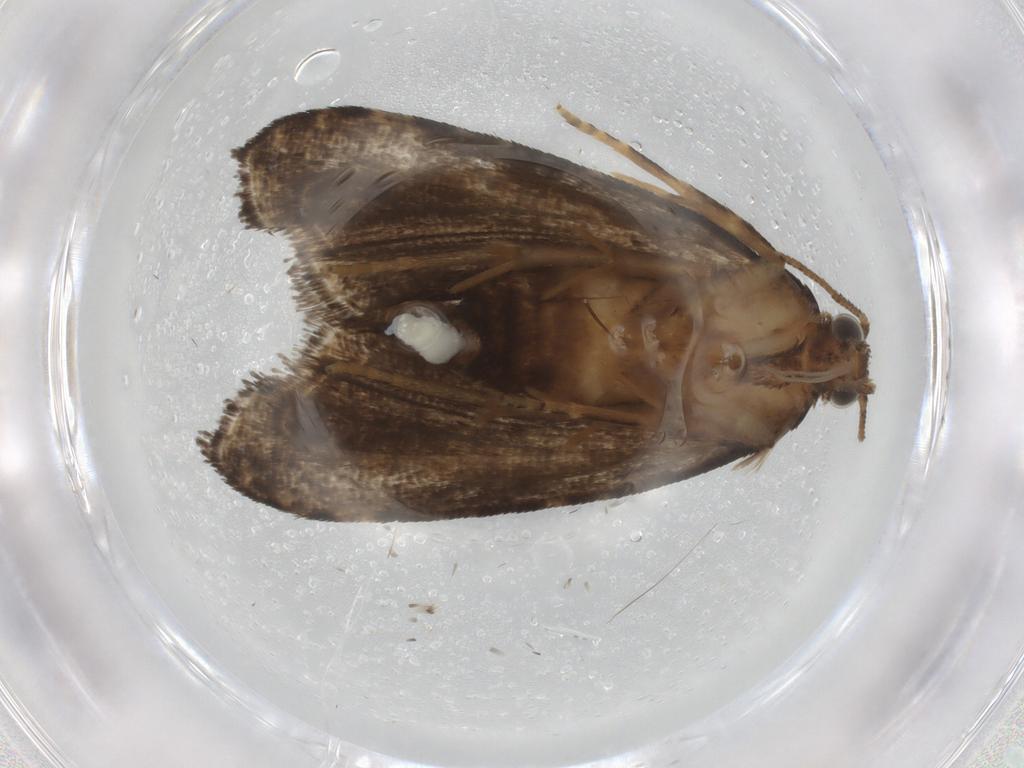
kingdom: Animalia
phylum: Arthropoda
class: Insecta
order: Lepidoptera
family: Tortricidae
